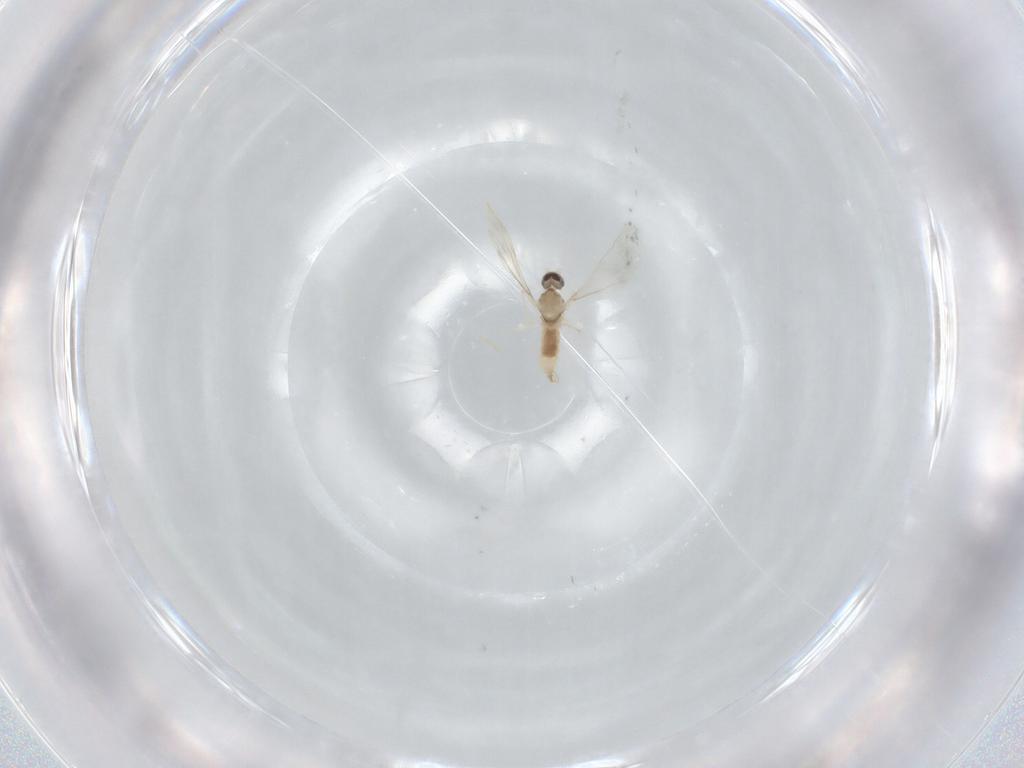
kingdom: Animalia
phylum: Arthropoda
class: Insecta
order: Diptera
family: Cecidomyiidae
